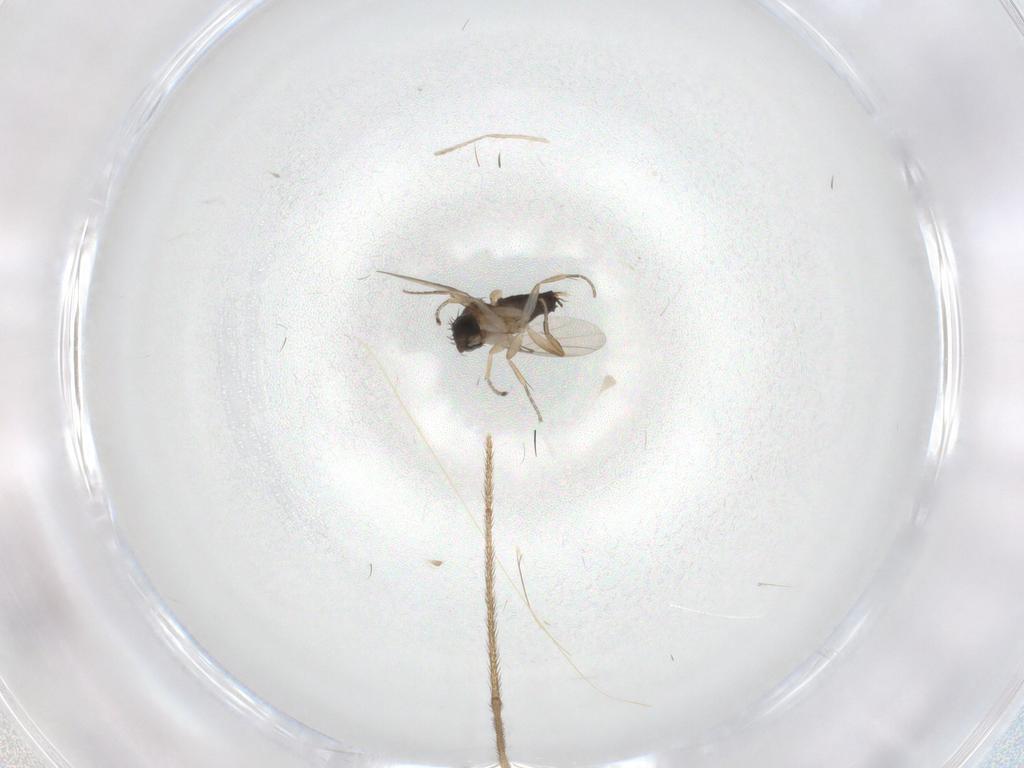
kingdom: Animalia
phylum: Arthropoda
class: Insecta
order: Diptera
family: Limoniidae
